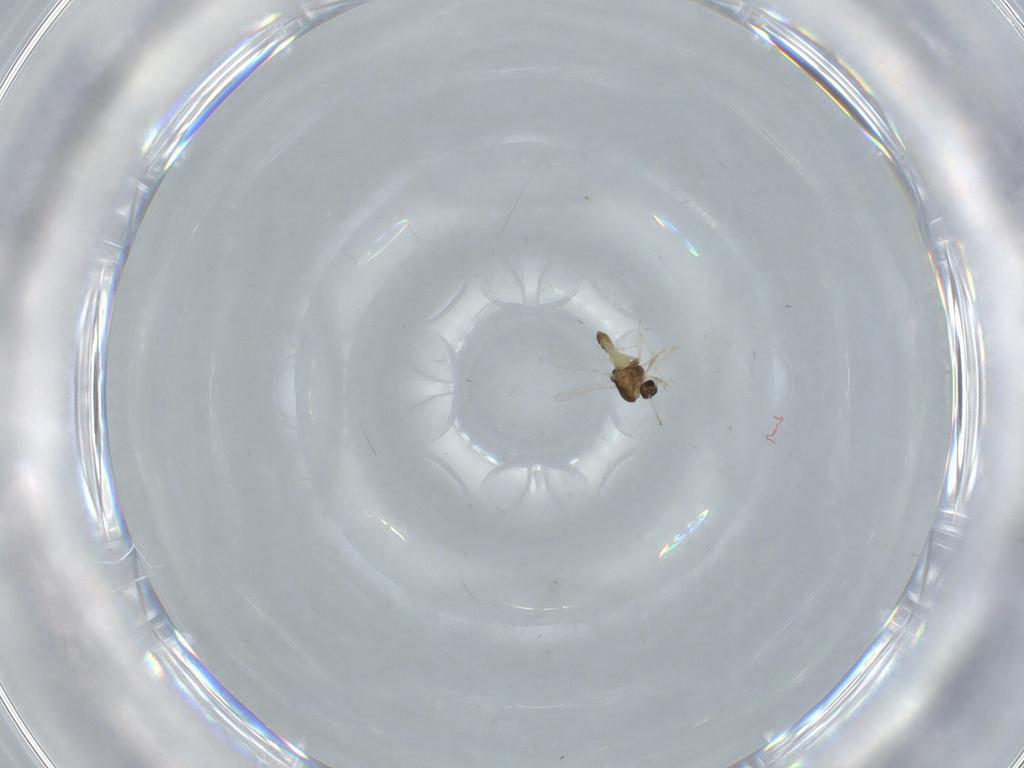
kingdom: Animalia
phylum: Arthropoda
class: Insecta
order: Diptera
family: Chironomidae
